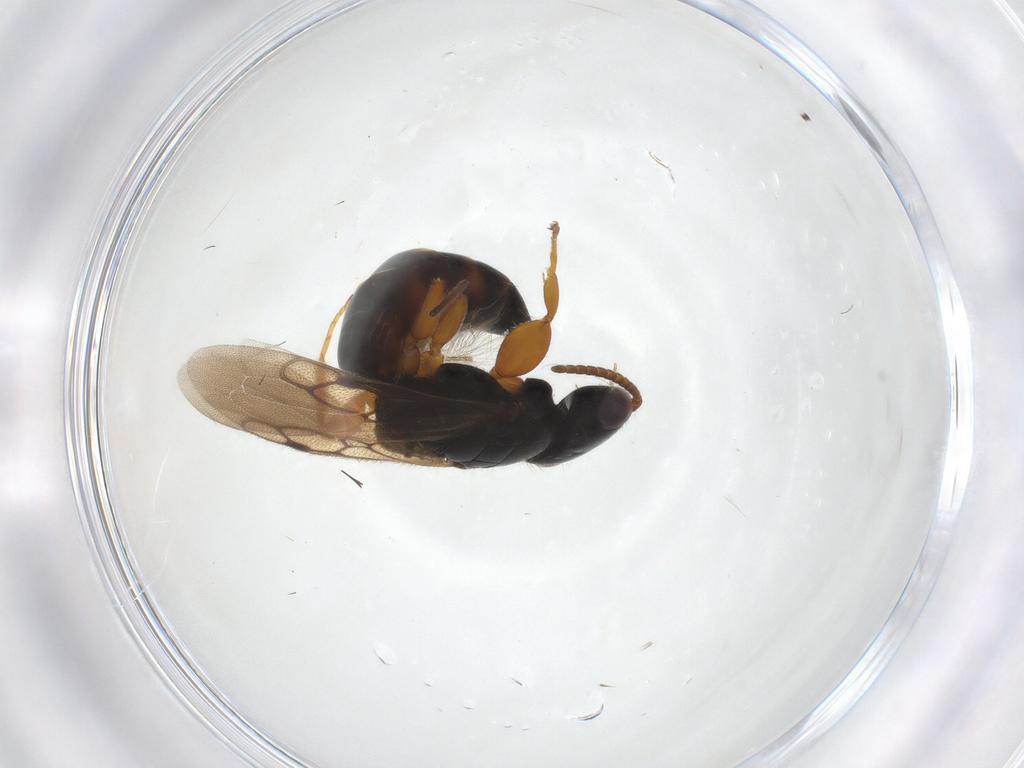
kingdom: Animalia
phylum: Arthropoda
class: Insecta
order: Hymenoptera
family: Bethylidae
